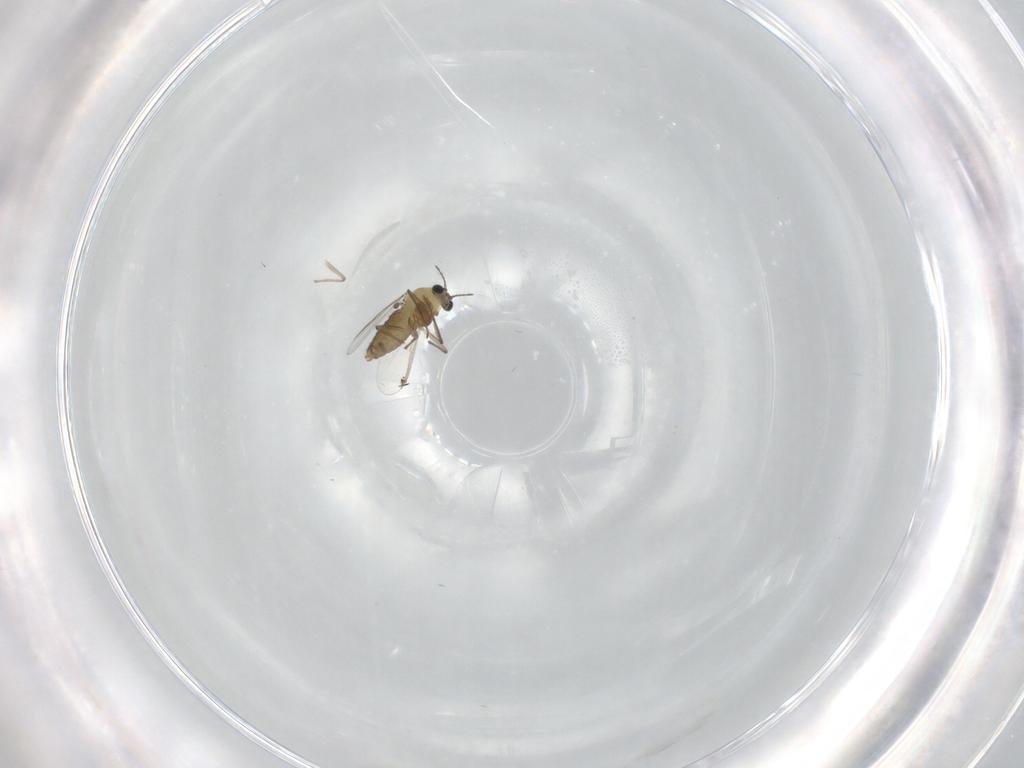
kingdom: Animalia
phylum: Arthropoda
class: Insecta
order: Diptera
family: Chironomidae
